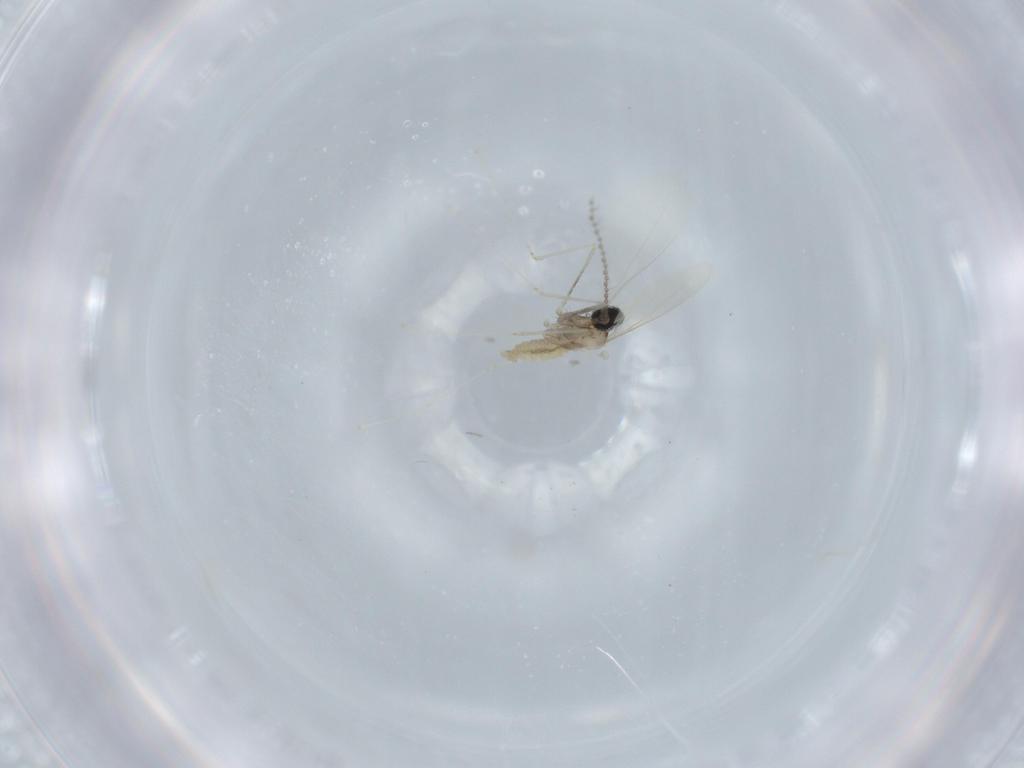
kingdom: Animalia
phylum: Arthropoda
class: Insecta
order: Diptera
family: Cecidomyiidae
